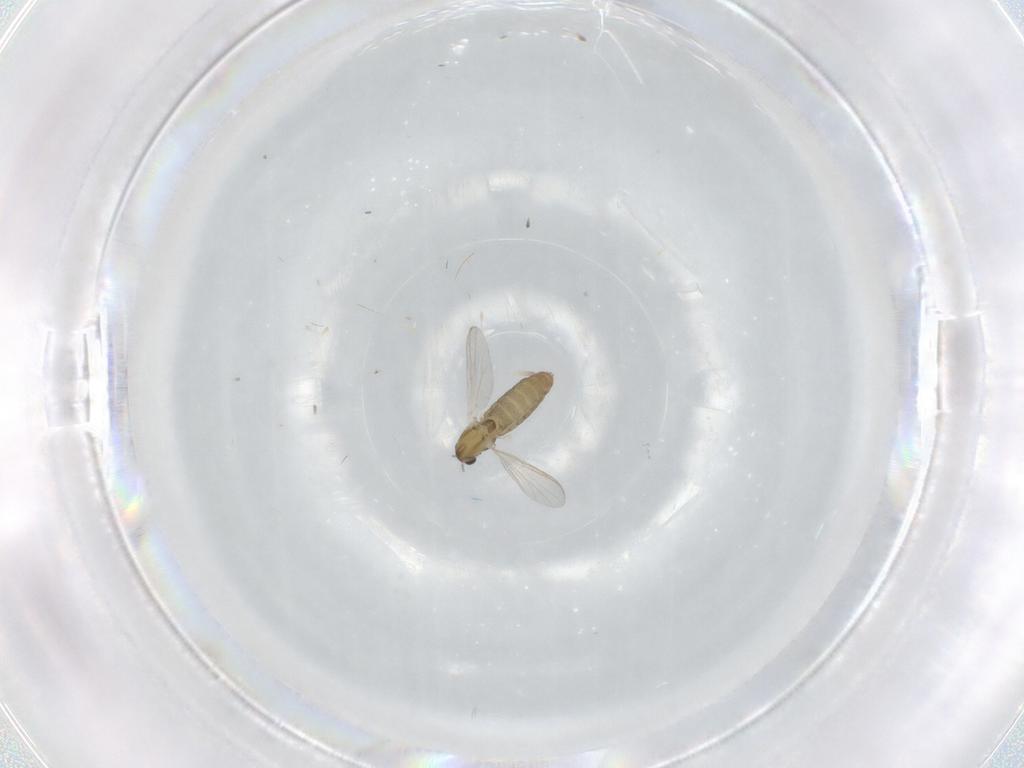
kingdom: Animalia
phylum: Arthropoda
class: Insecta
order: Diptera
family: Chironomidae
